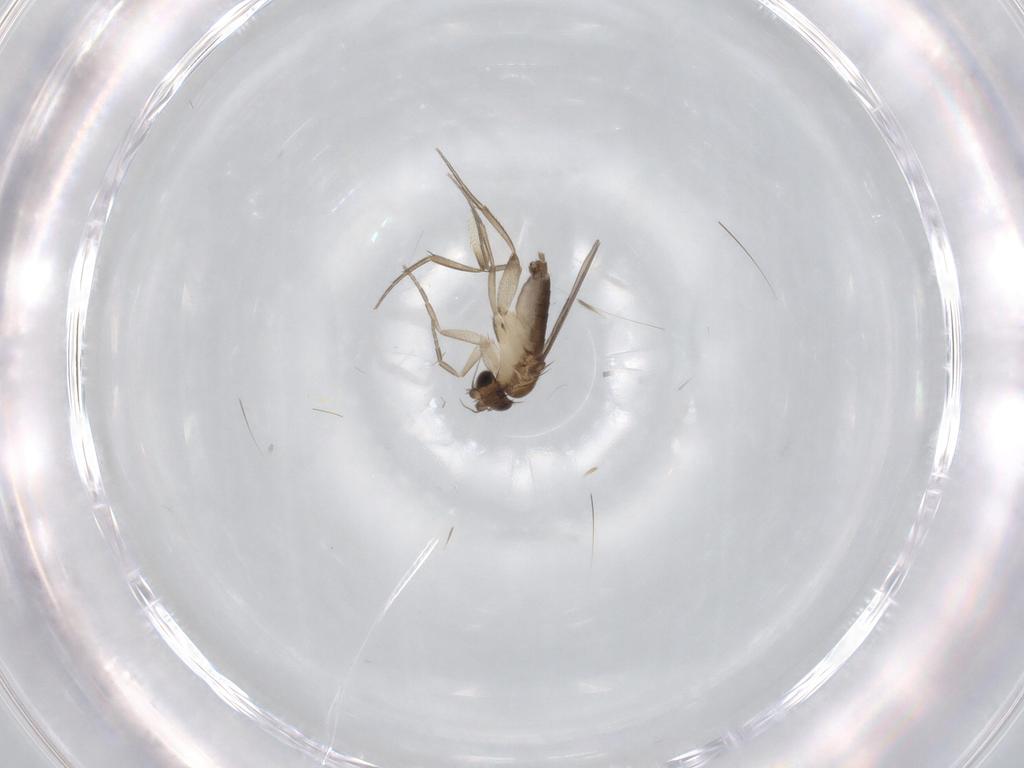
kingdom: Animalia
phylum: Arthropoda
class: Insecta
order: Diptera
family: Phoridae
